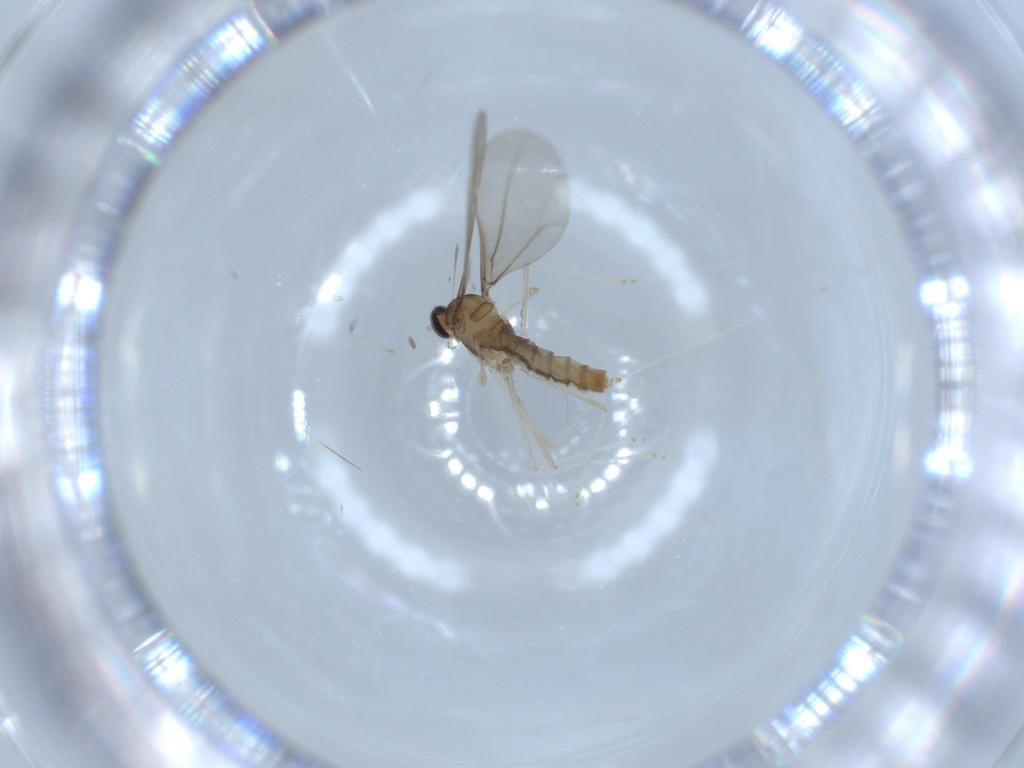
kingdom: Animalia
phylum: Arthropoda
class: Insecta
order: Diptera
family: Cecidomyiidae
